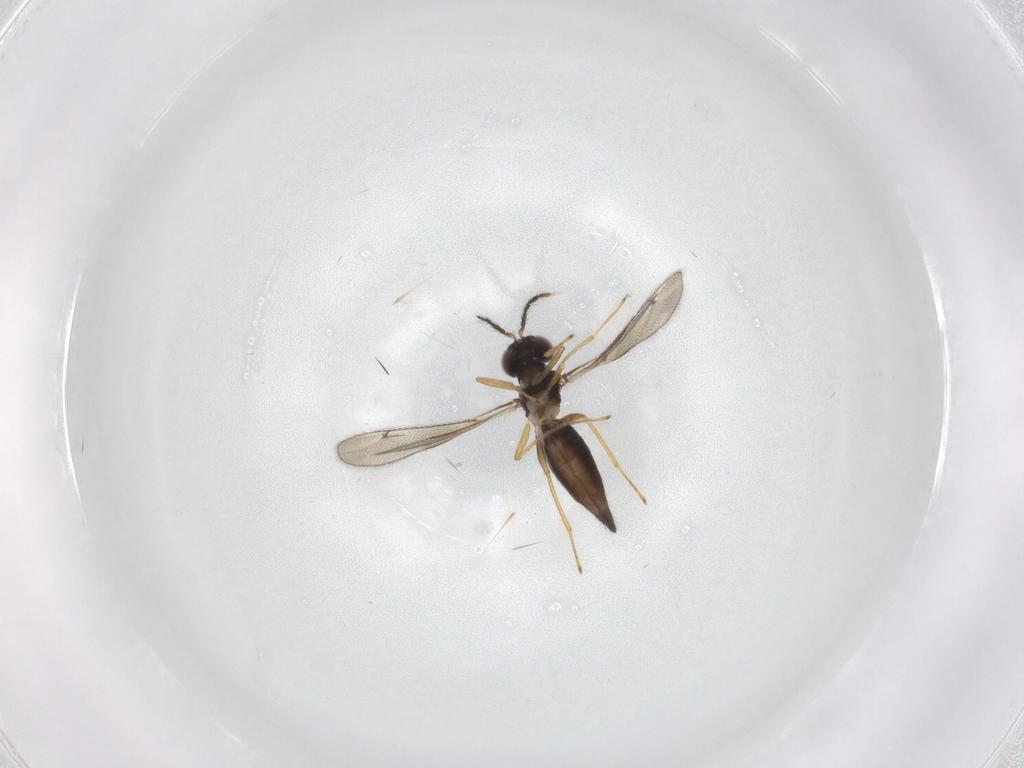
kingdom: Animalia
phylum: Arthropoda
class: Insecta
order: Hymenoptera
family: Eulophidae
